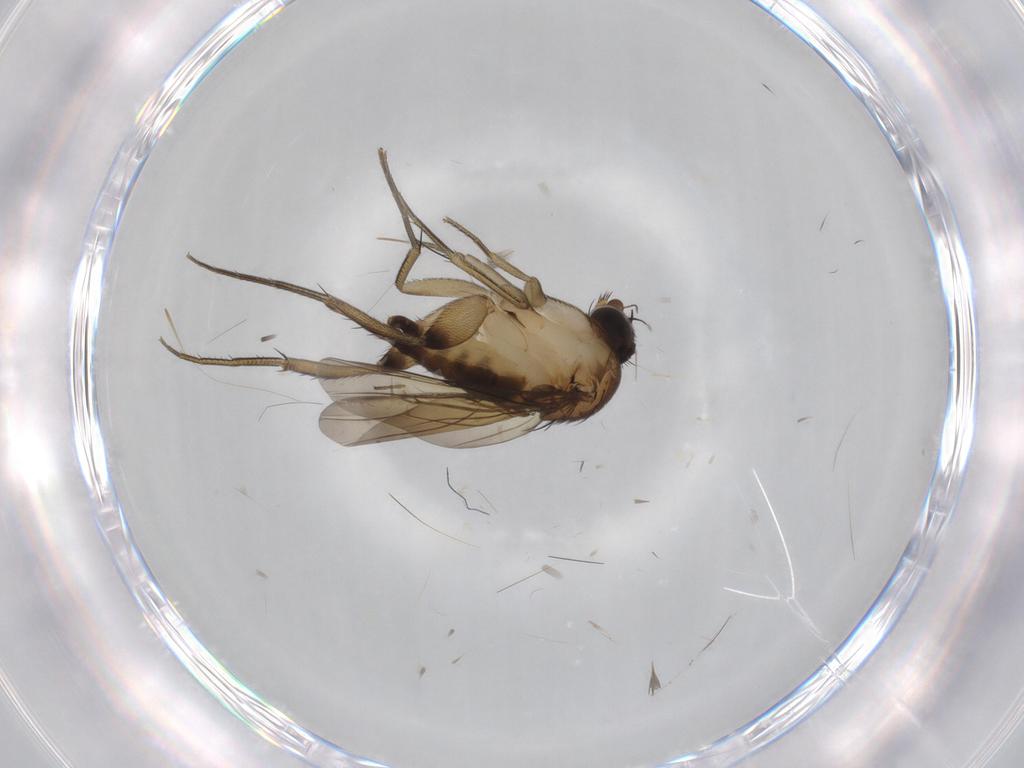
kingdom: Animalia
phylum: Arthropoda
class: Insecta
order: Diptera
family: Phoridae
